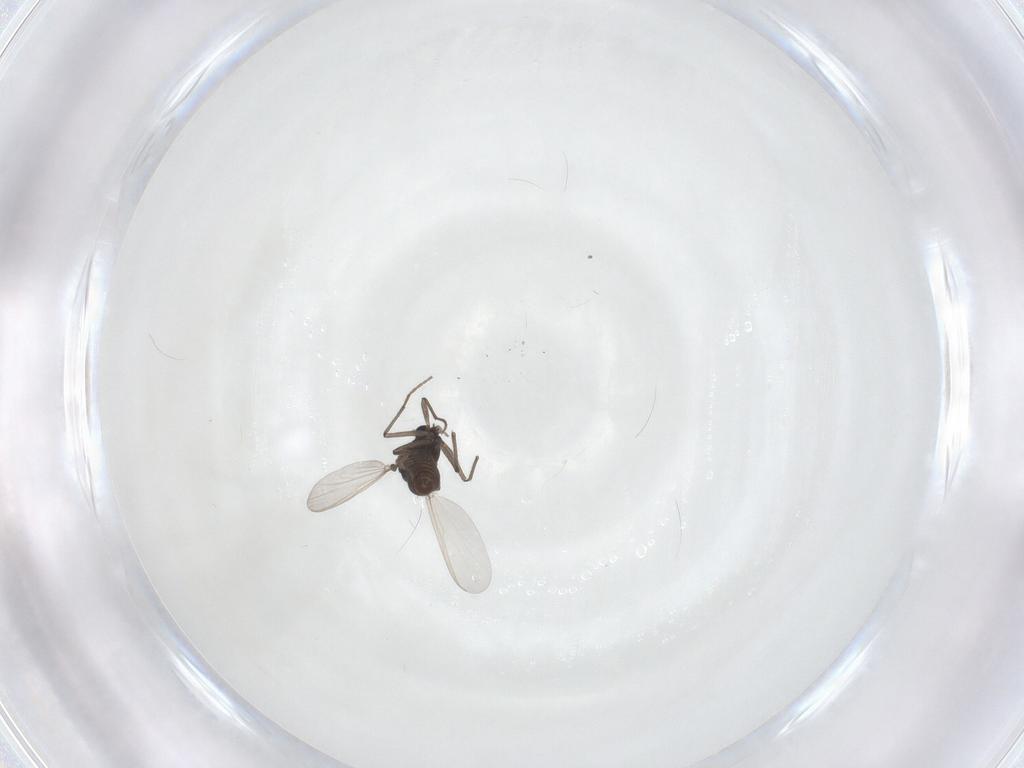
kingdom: Animalia
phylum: Arthropoda
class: Insecta
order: Diptera
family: Chironomidae
